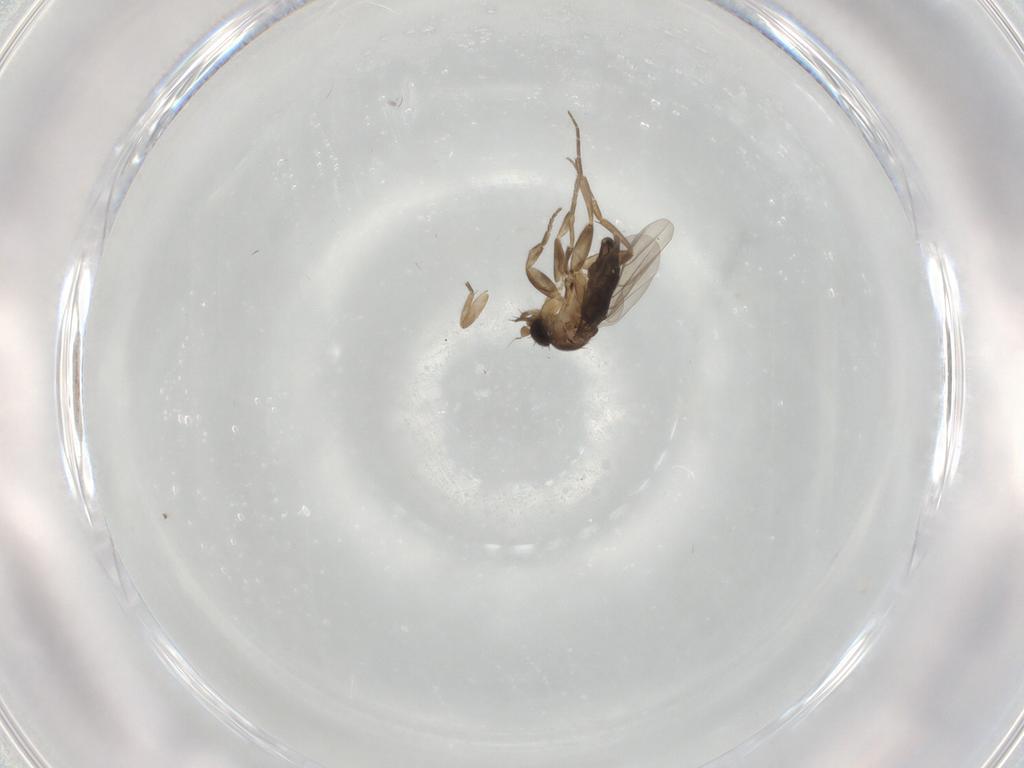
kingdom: Animalia
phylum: Arthropoda
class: Insecta
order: Diptera
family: Phoridae
